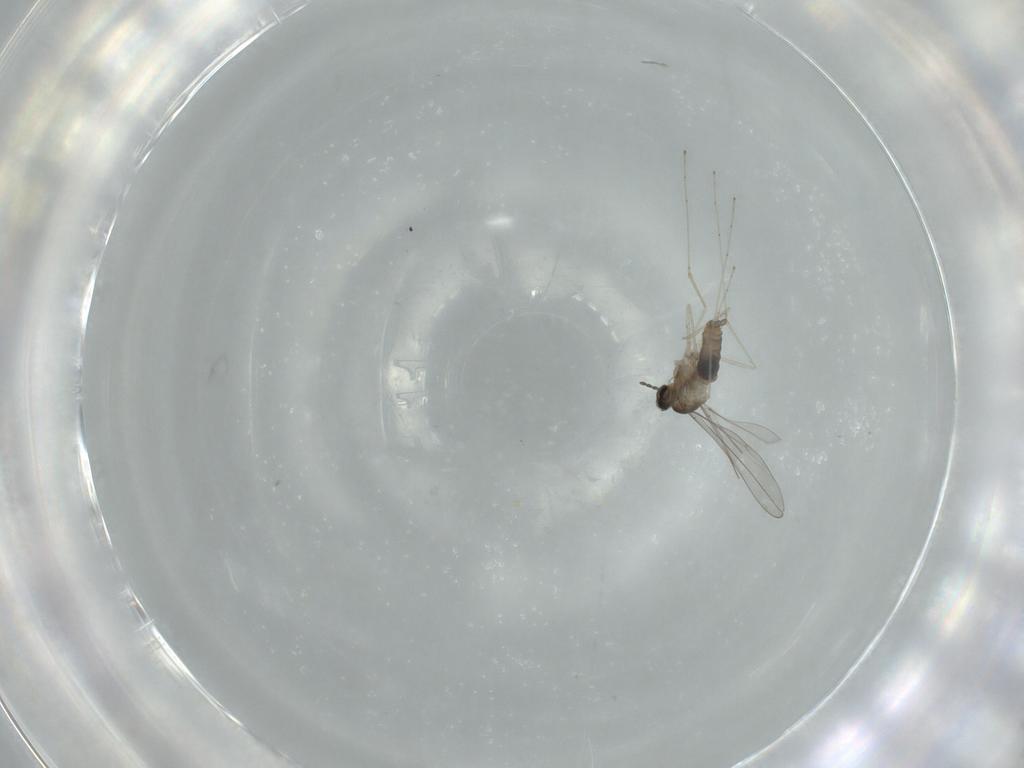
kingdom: Animalia
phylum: Arthropoda
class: Insecta
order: Diptera
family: Cecidomyiidae
